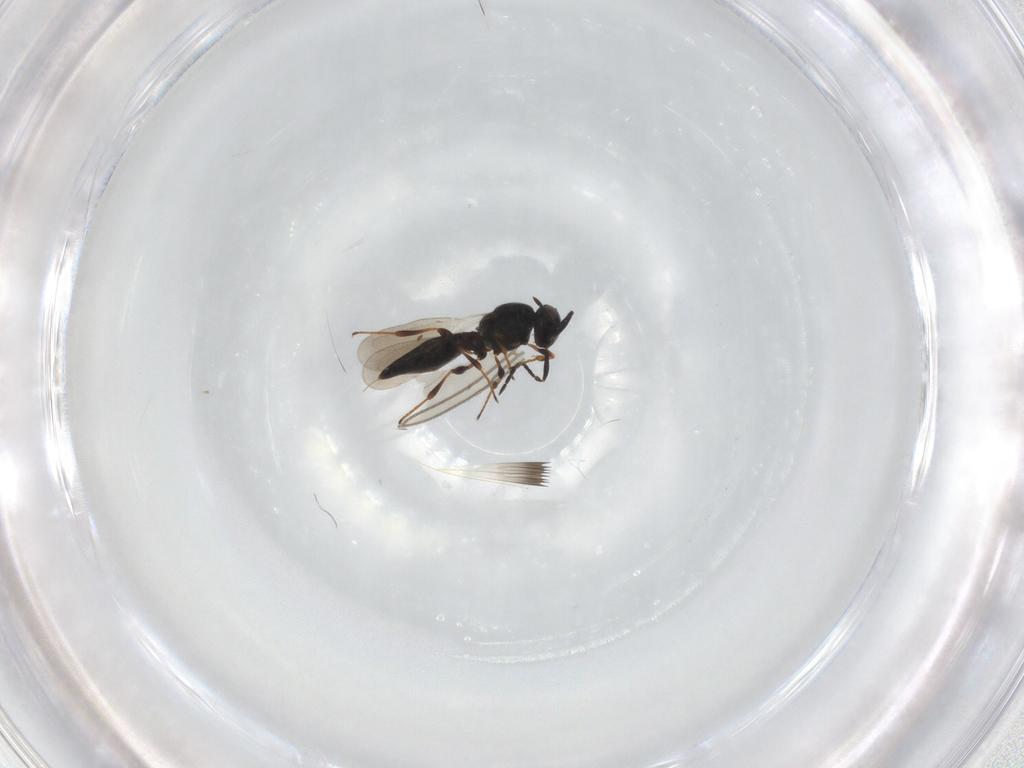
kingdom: Animalia
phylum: Arthropoda
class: Insecta
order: Hymenoptera
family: Platygastridae
